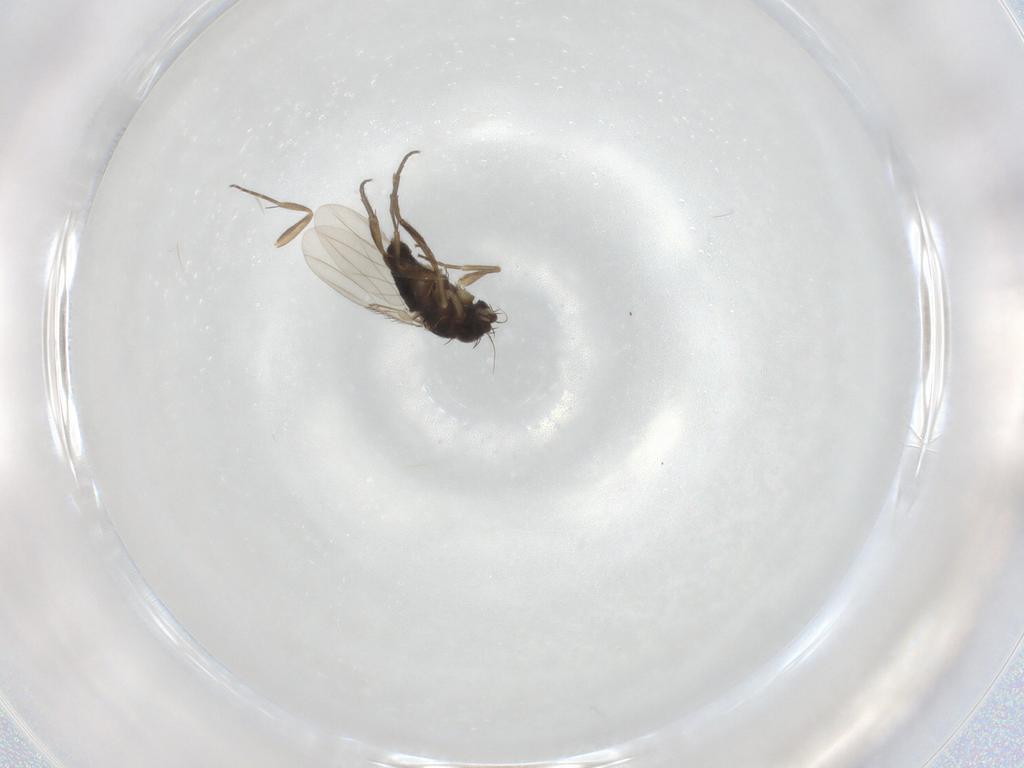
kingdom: Animalia
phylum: Arthropoda
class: Insecta
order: Diptera
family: Phoridae
